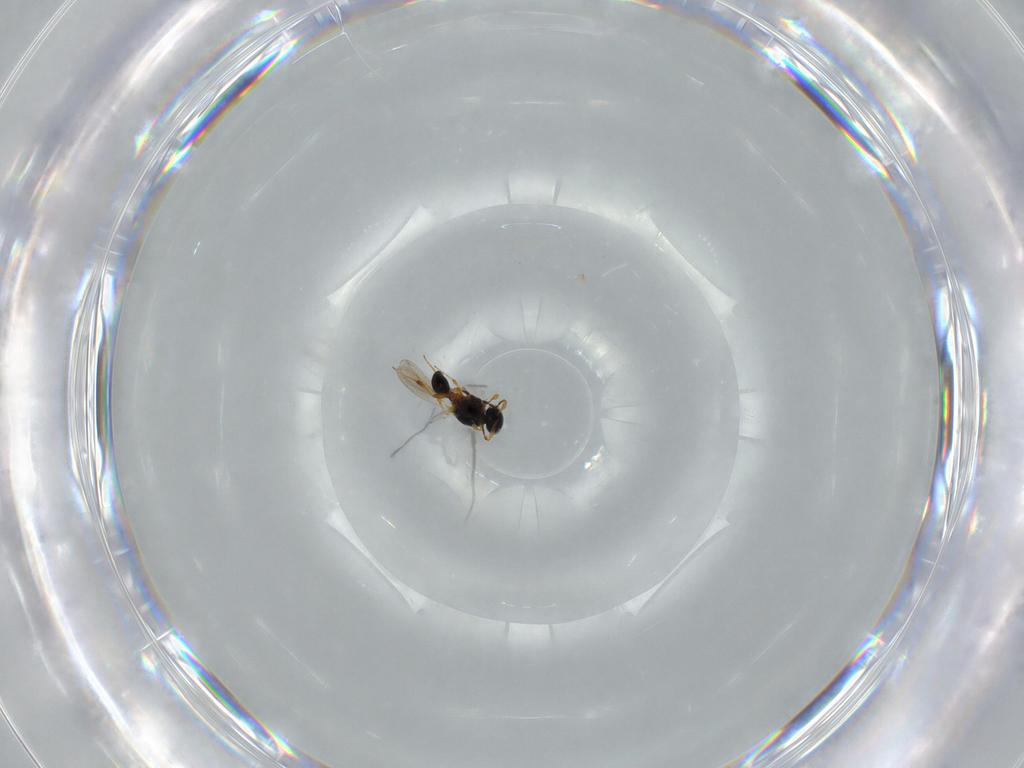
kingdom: Animalia
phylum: Arthropoda
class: Insecta
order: Hymenoptera
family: Platygastridae
